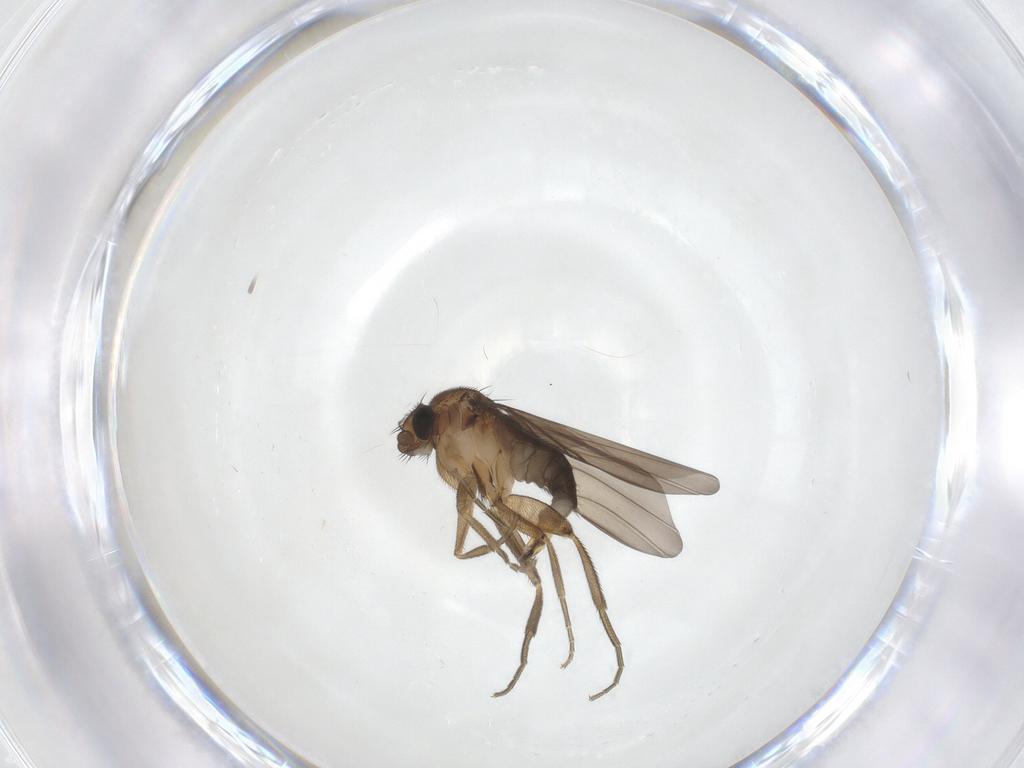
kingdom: Animalia
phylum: Arthropoda
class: Insecta
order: Diptera
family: Phoridae
